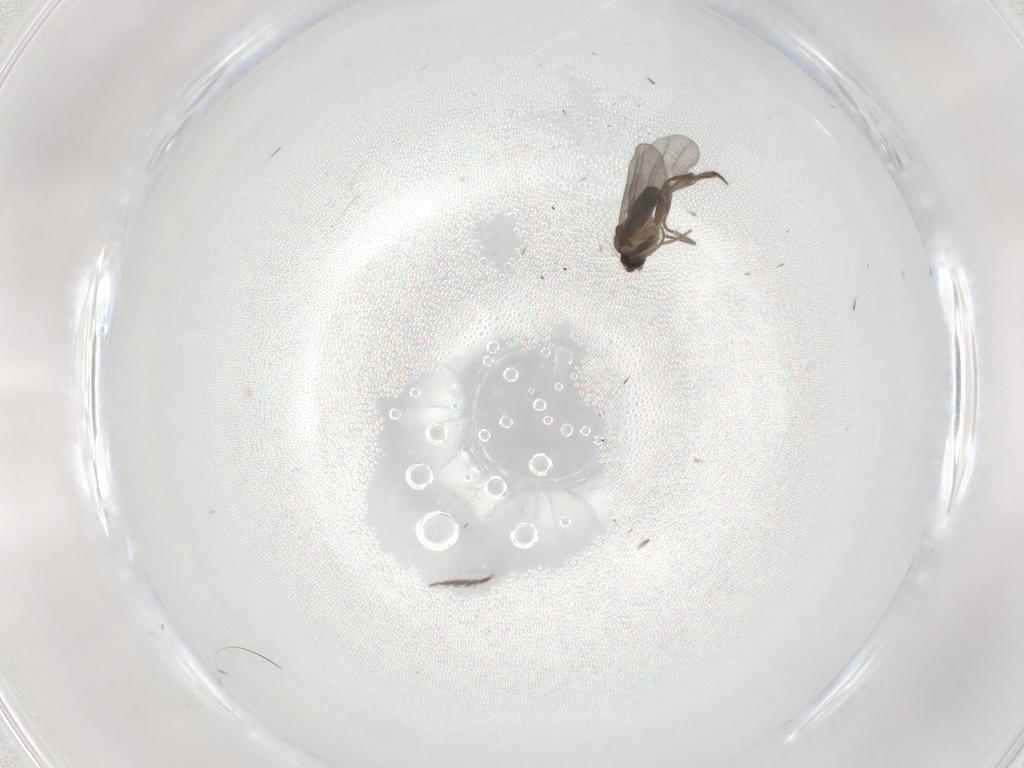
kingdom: Animalia
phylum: Arthropoda
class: Insecta
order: Diptera
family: Phoridae
